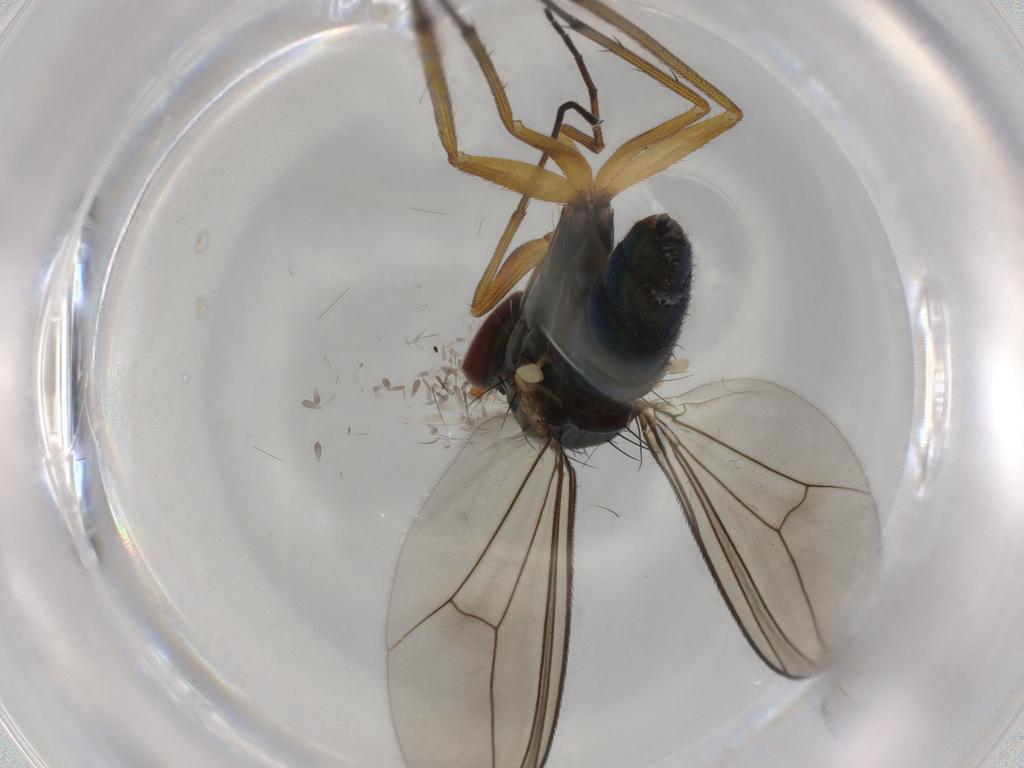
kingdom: Animalia
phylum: Arthropoda
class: Insecta
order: Diptera
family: Dolichopodidae
